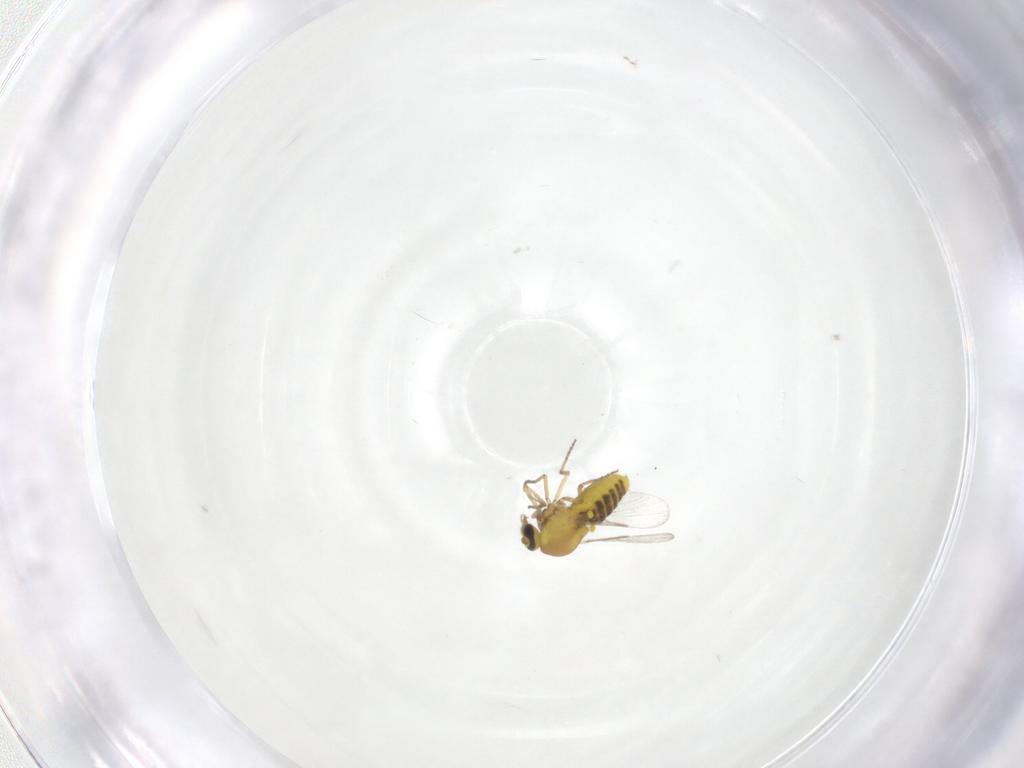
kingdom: Animalia
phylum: Arthropoda
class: Insecta
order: Diptera
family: Ceratopogonidae
